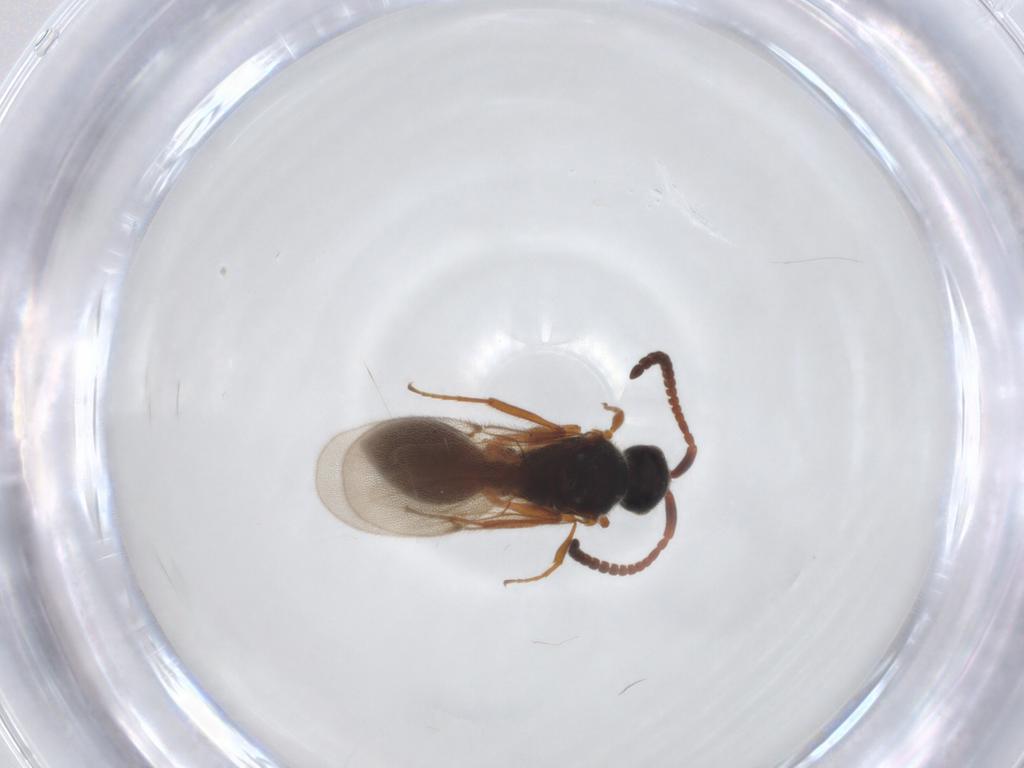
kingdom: Animalia
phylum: Arthropoda
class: Insecta
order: Hymenoptera
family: Diapriidae
